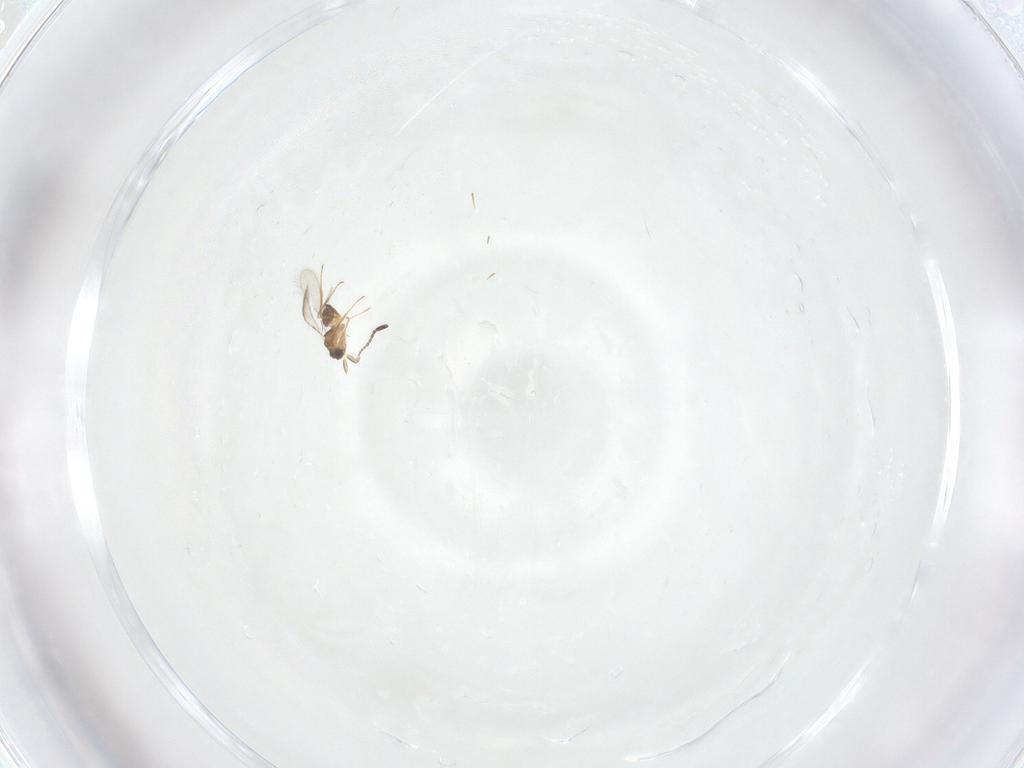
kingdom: Animalia
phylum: Arthropoda
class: Insecta
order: Hymenoptera
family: Mymaridae
